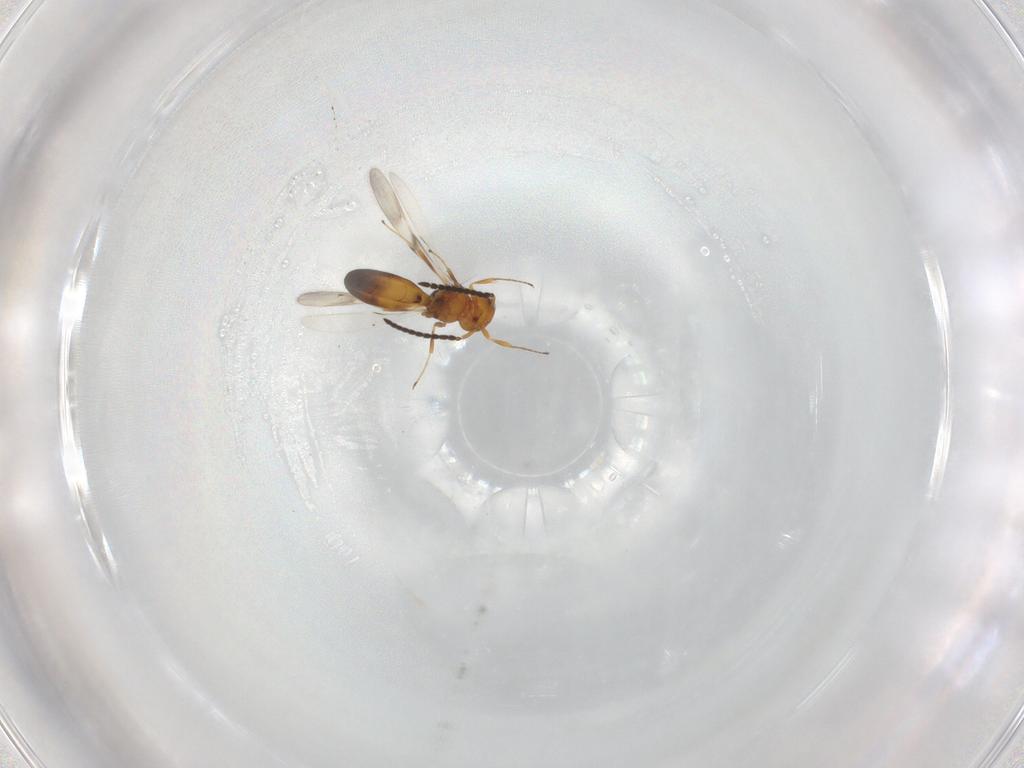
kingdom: Animalia
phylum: Arthropoda
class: Insecta
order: Hymenoptera
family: Scelionidae
